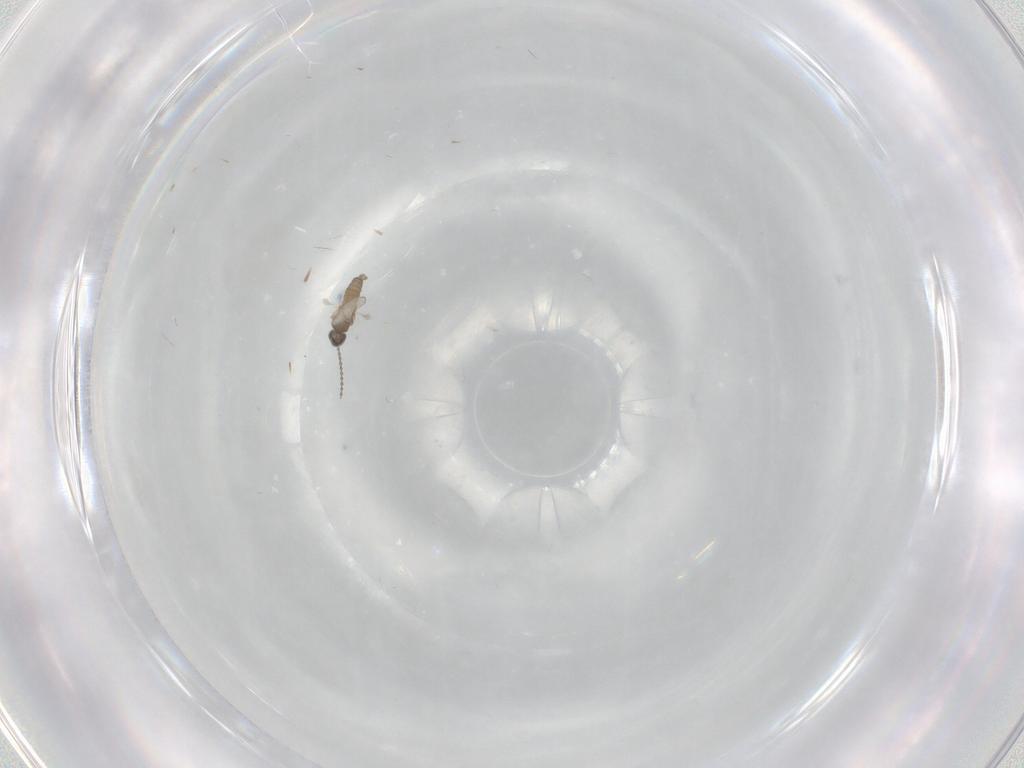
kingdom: Animalia
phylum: Arthropoda
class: Insecta
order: Diptera
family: Cecidomyiidae
